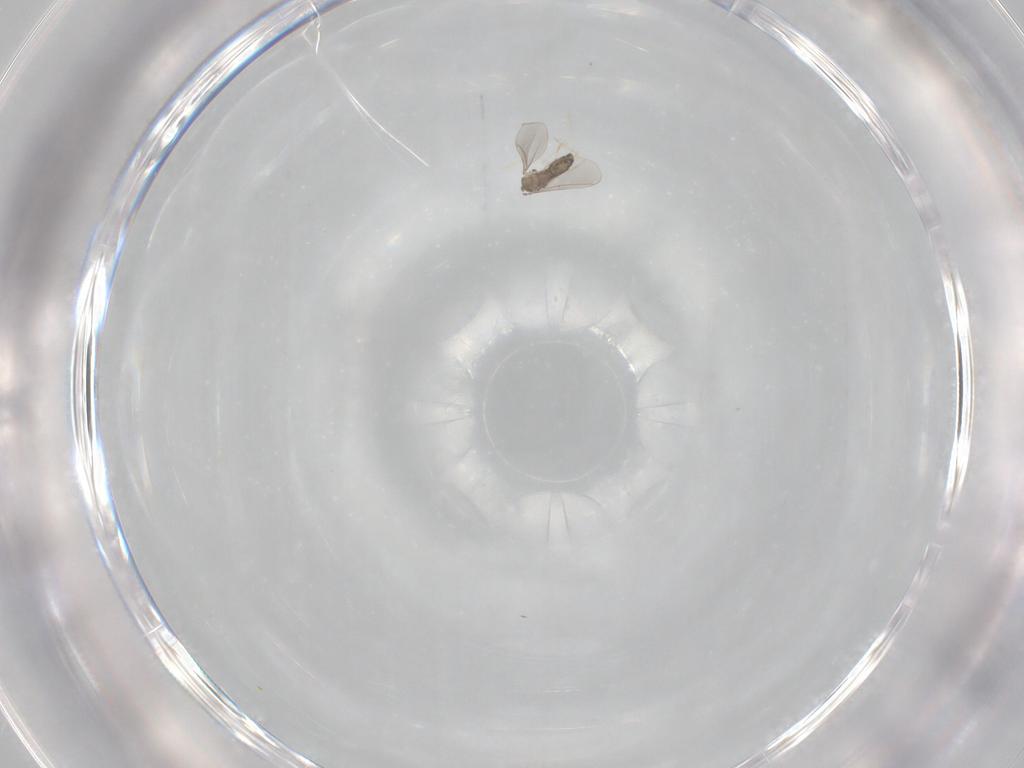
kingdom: Animalia
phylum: Arthropoda
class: Insecta
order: Diptera
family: Cecidomyiidae
